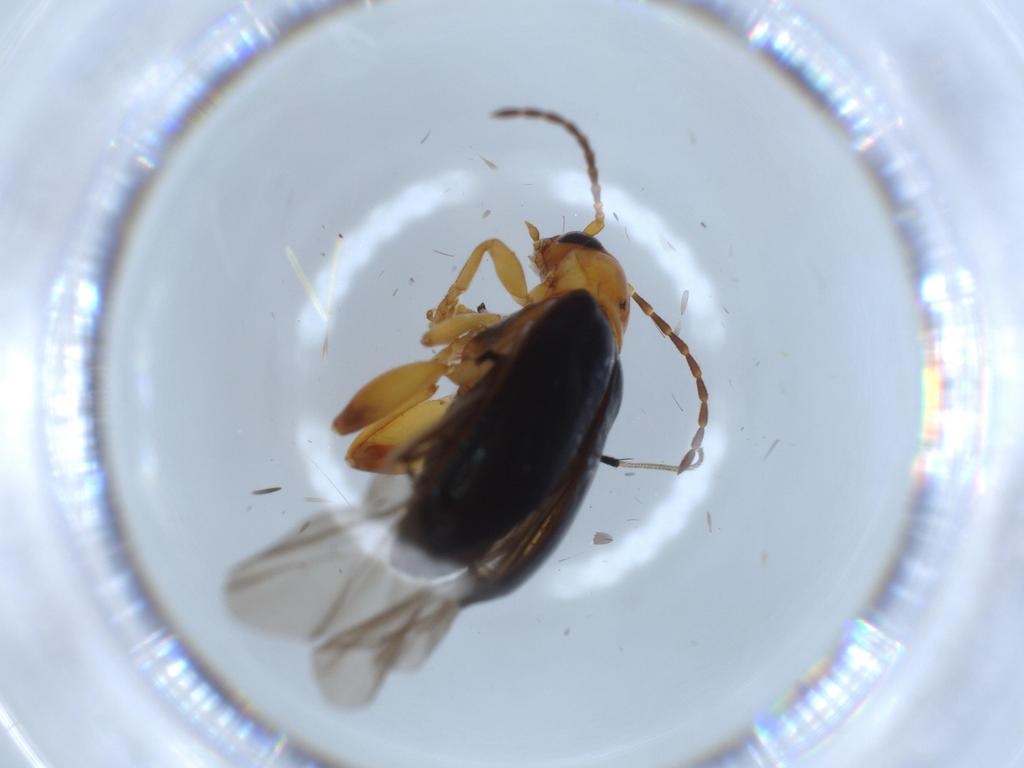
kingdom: Animalia
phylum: Arthropoda
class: Insecta
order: Coleoptera
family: Chrysomelidae
